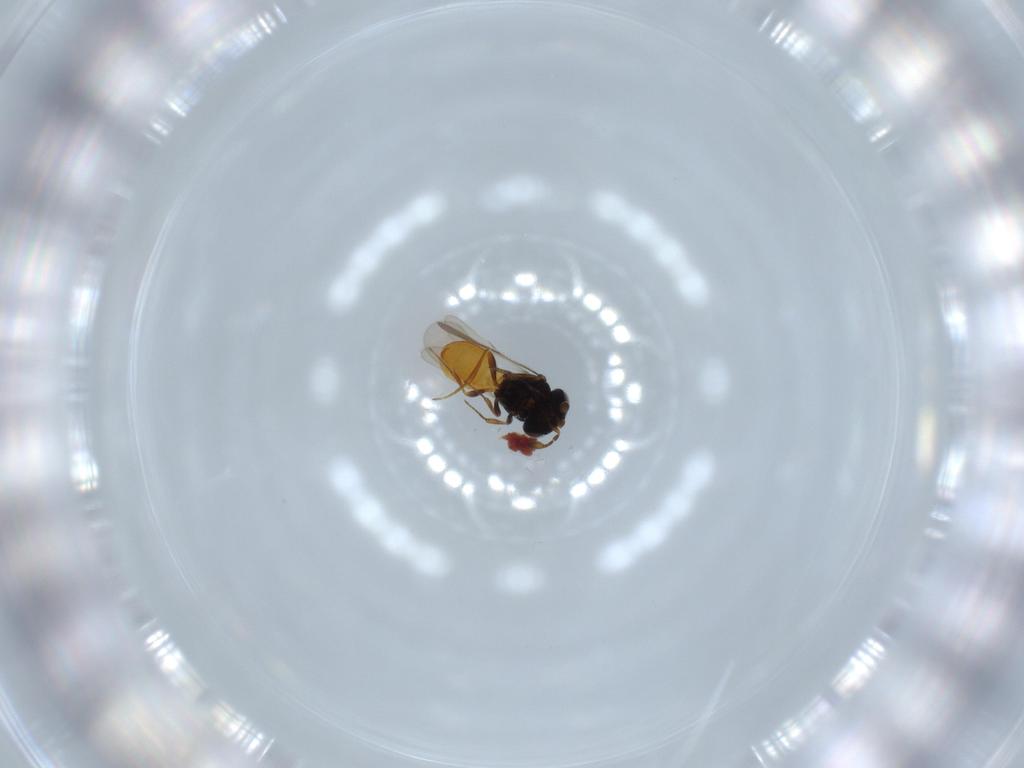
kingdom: Animalia
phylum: Arthropoda
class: Insecta
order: Hymenoptera
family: Scelionidae
